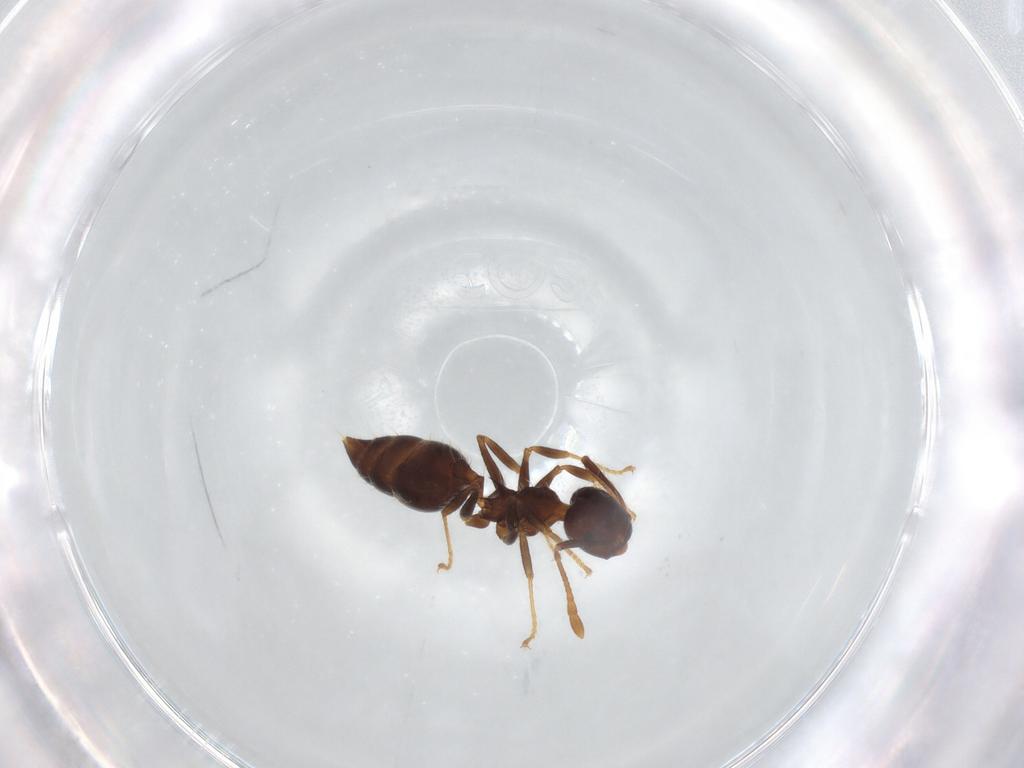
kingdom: Animalia
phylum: Arthropoda
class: Insecta
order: Hymenoptera
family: Formicidae
